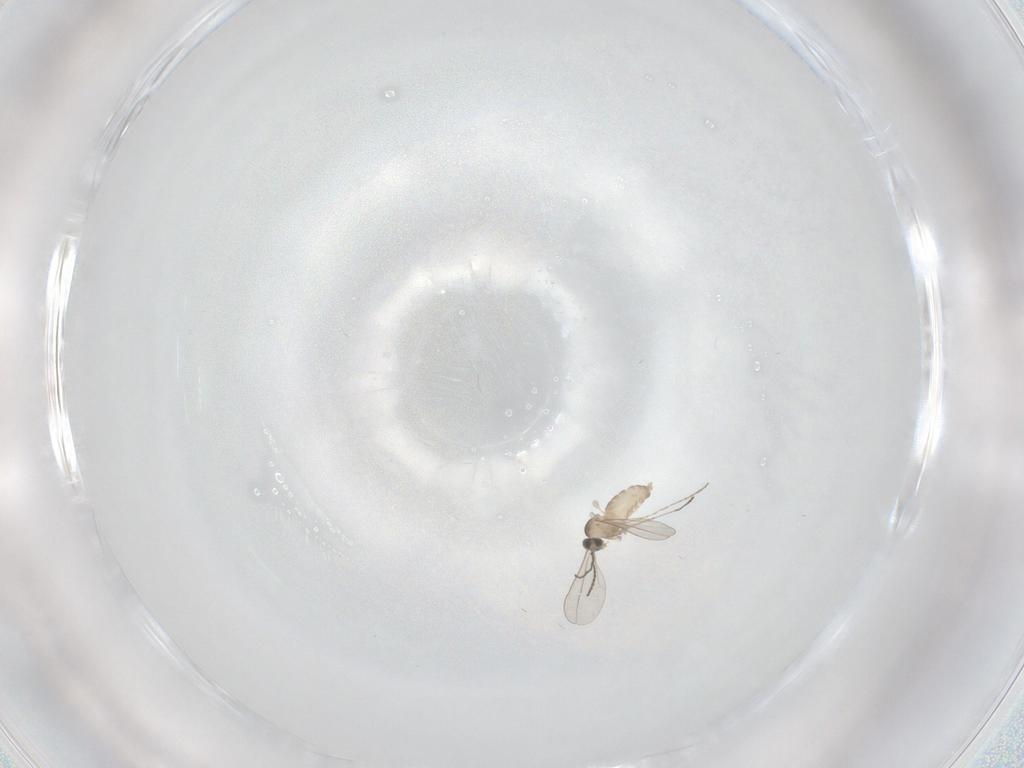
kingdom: Animalia
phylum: Arthropoda
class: Insecta
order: Diptera
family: Cecidomyiidae
